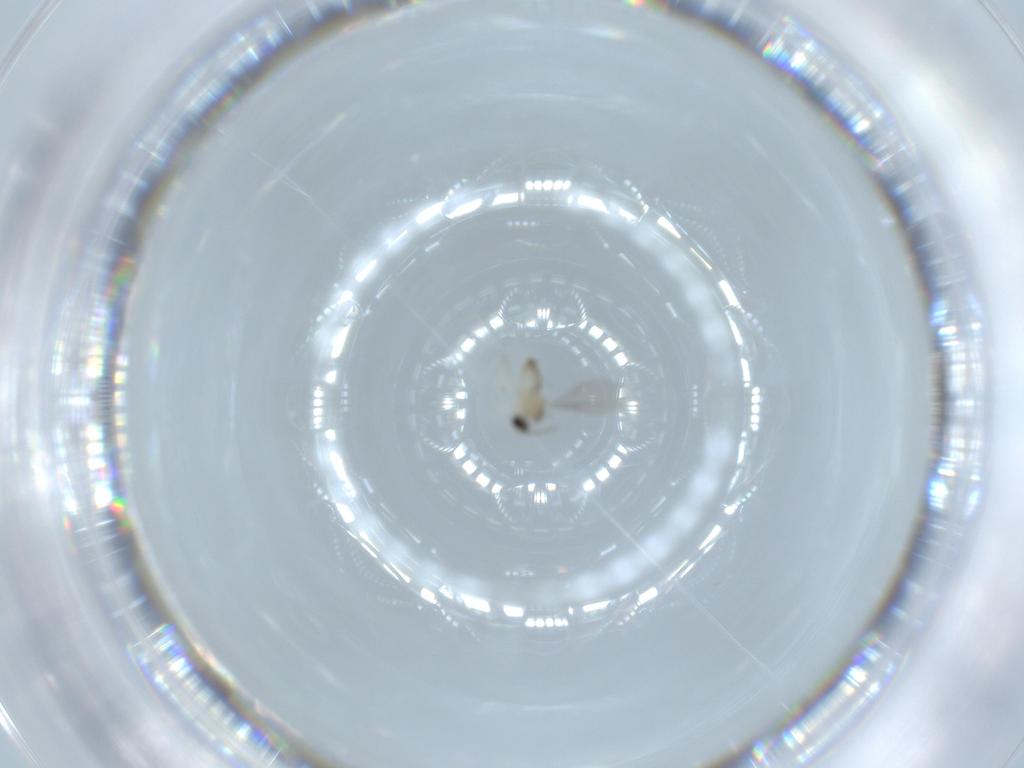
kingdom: Animalia
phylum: Arthropoda
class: Insecta
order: Diptera
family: Cecidomyiidae
